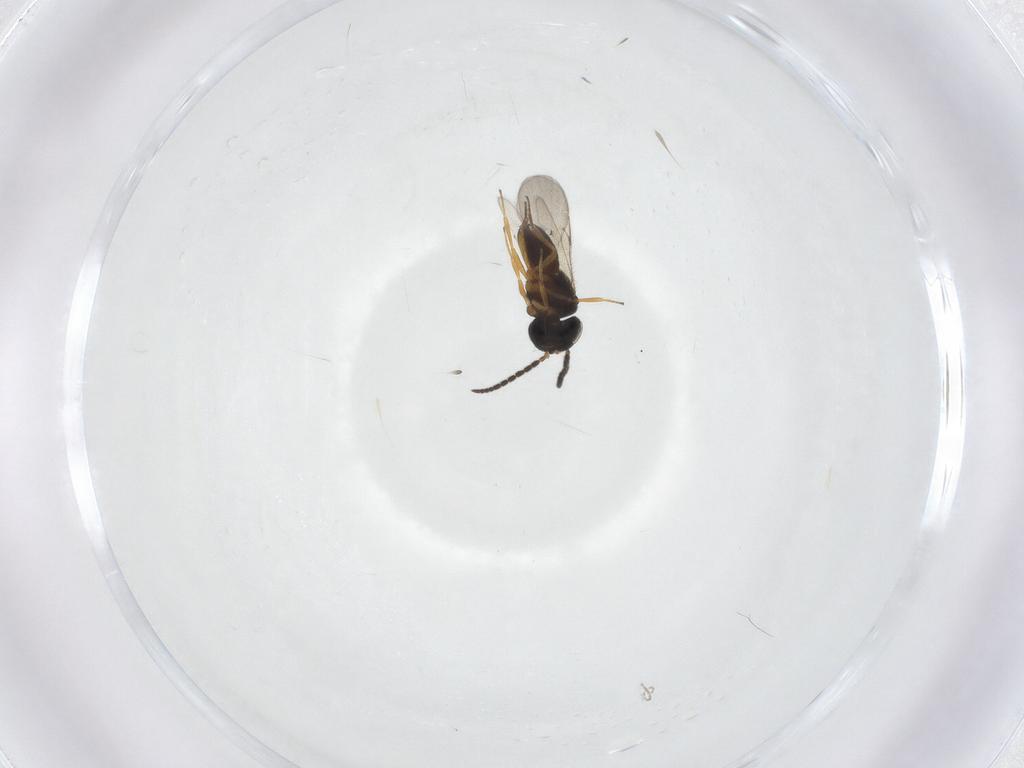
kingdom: Animalia
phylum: Arthropoda
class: Insecta
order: Coleoptera
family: Curculionidae
